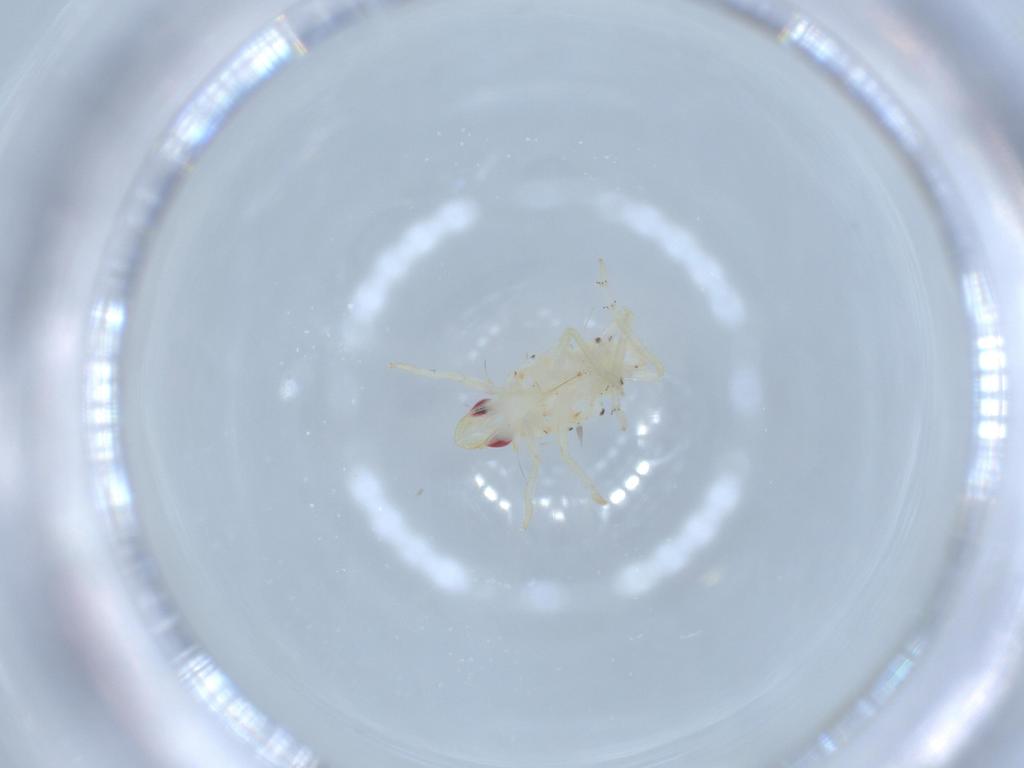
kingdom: Animalia
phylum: Arthropoda
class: Insecta
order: Hemiptera
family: Tropiduchidae
